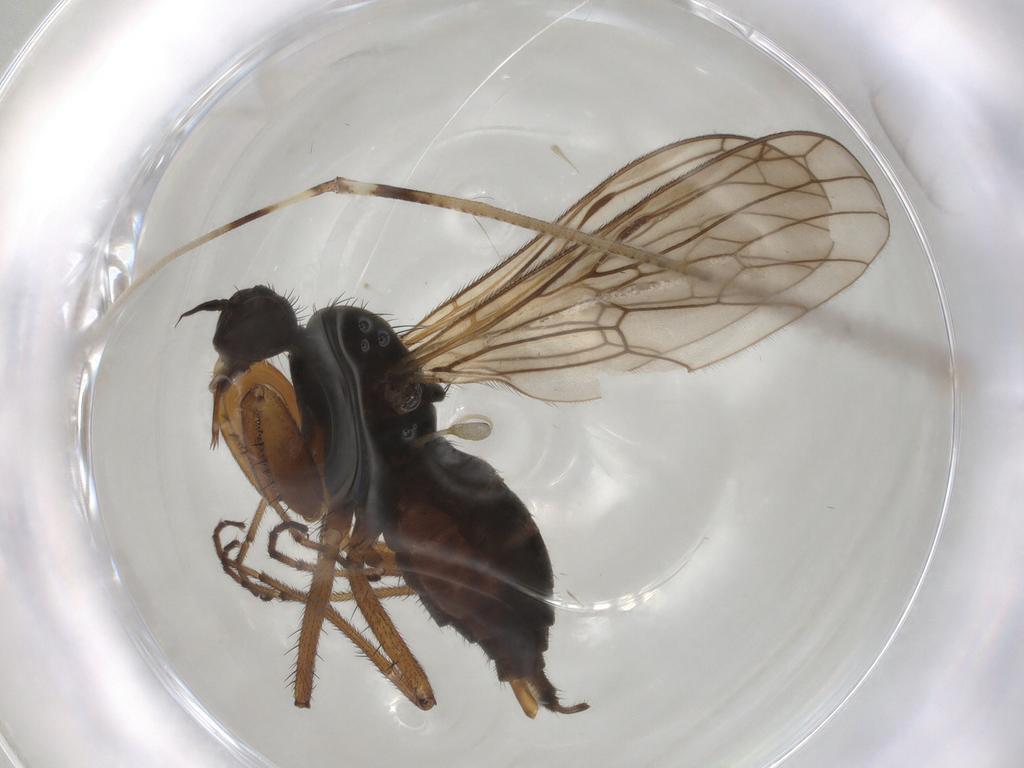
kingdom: Animalia
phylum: Arthropoda
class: Insecta
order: Diptera
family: Chironomidae
